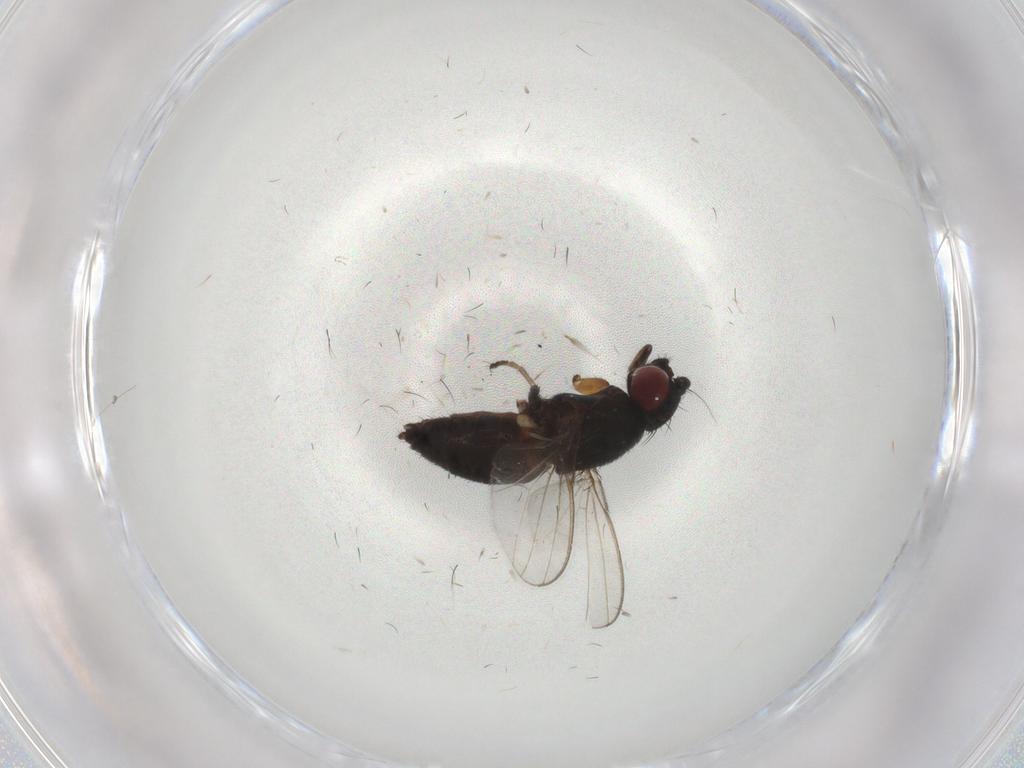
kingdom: Animalia
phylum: Arthropoda
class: Insecta
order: Diptera
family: Milichiidae
